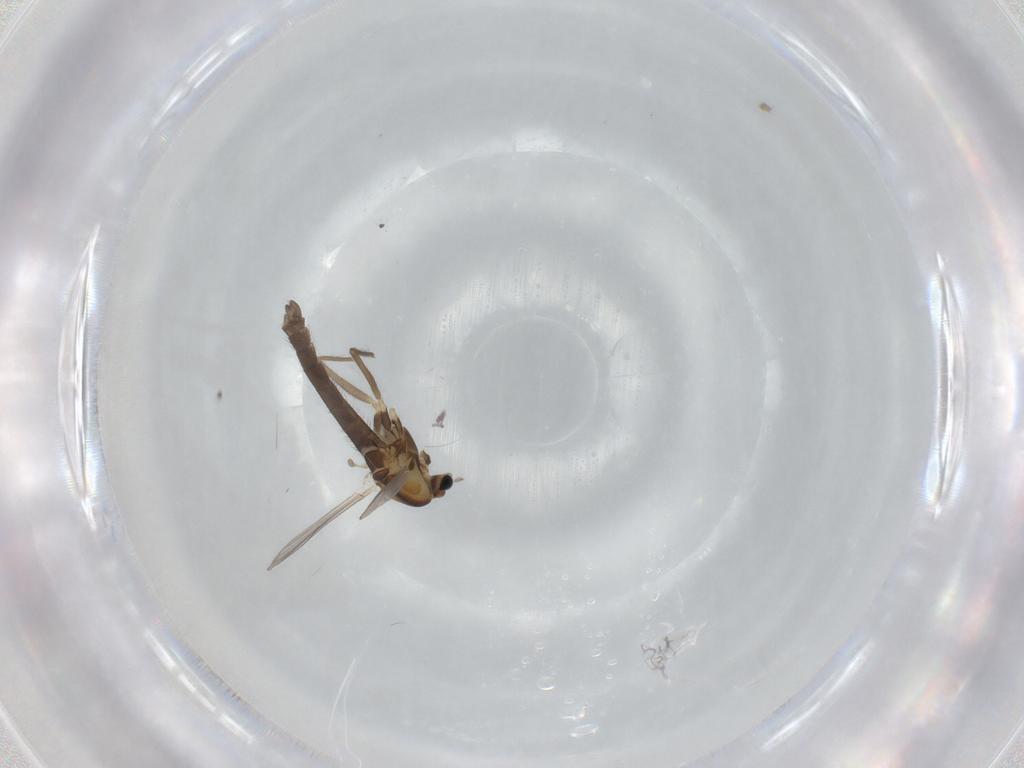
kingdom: Animalia
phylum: Arthropoda
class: Insecta
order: Diptera
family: Chironomidae
